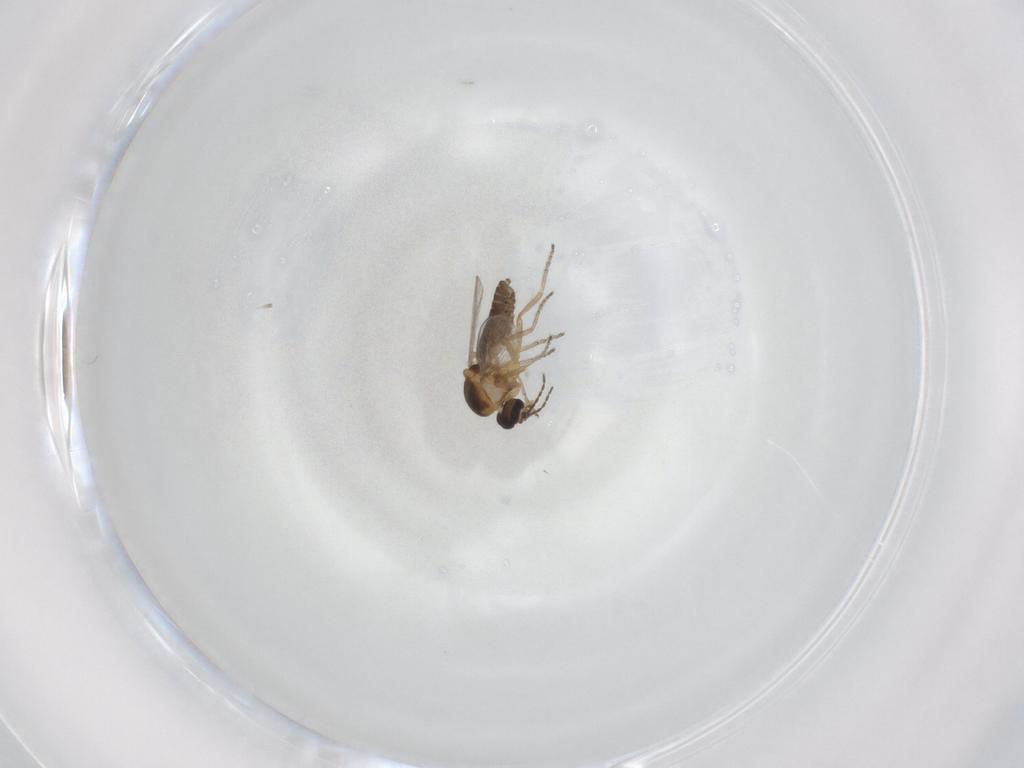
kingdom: Animalia
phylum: Arthropoda
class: Insecta
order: Diptera
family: Ceratopogonidae
